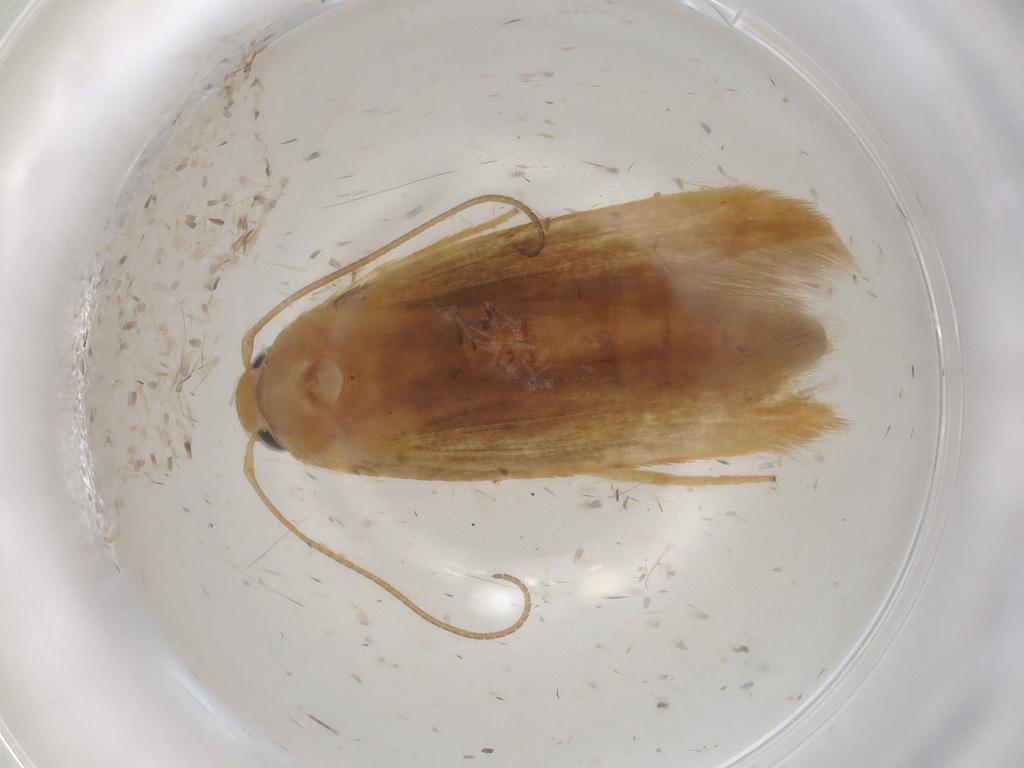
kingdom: Animalia
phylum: Arthropoda
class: Insecta
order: Lepidoptera
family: Stathmopodidae
